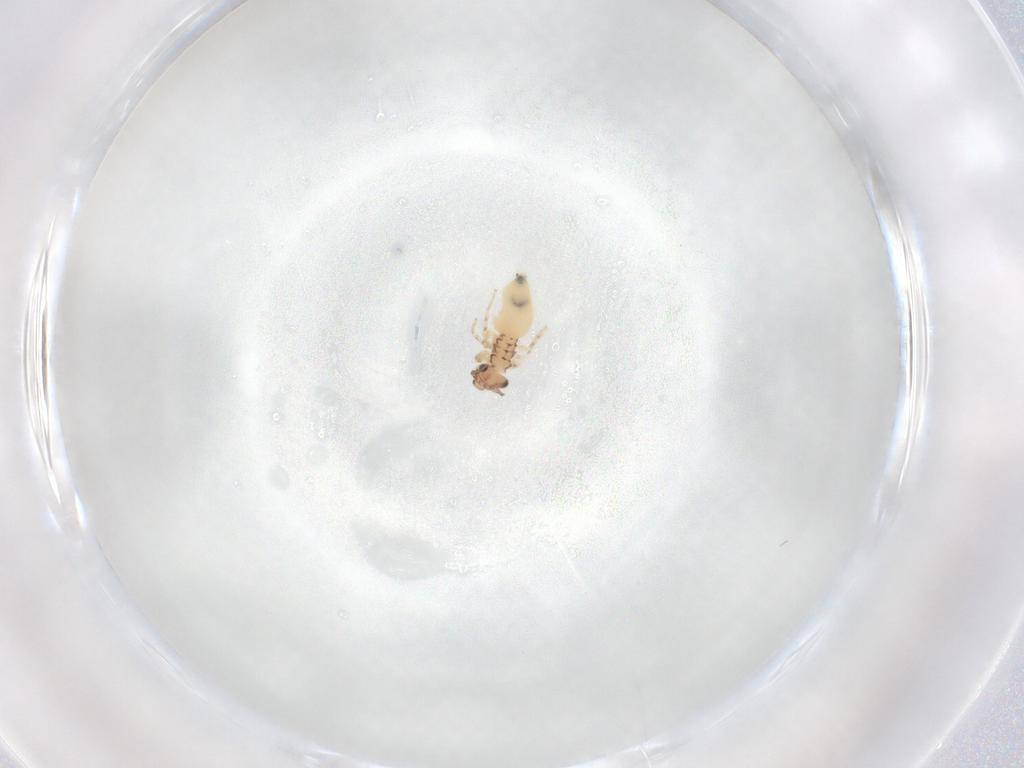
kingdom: Animalia
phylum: Arthropoda
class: Insecta
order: Psocodea
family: Lepidopsocidae
